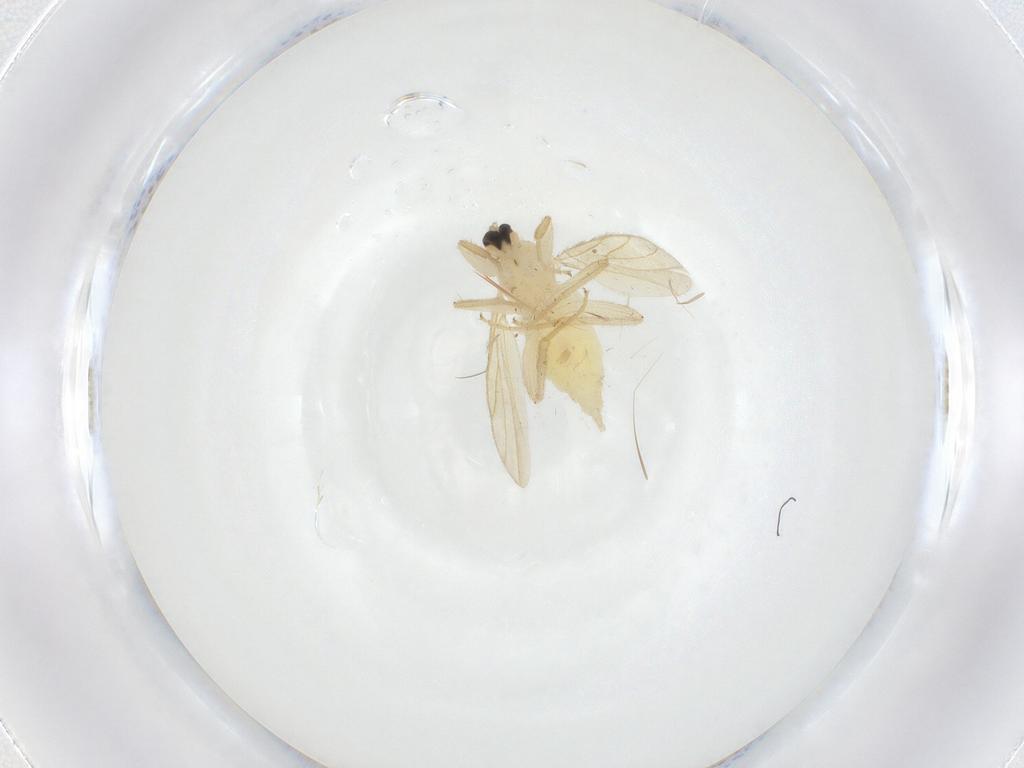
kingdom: Animalia
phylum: Arthropoda
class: Insecta
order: Diptera
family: Hybotidae
